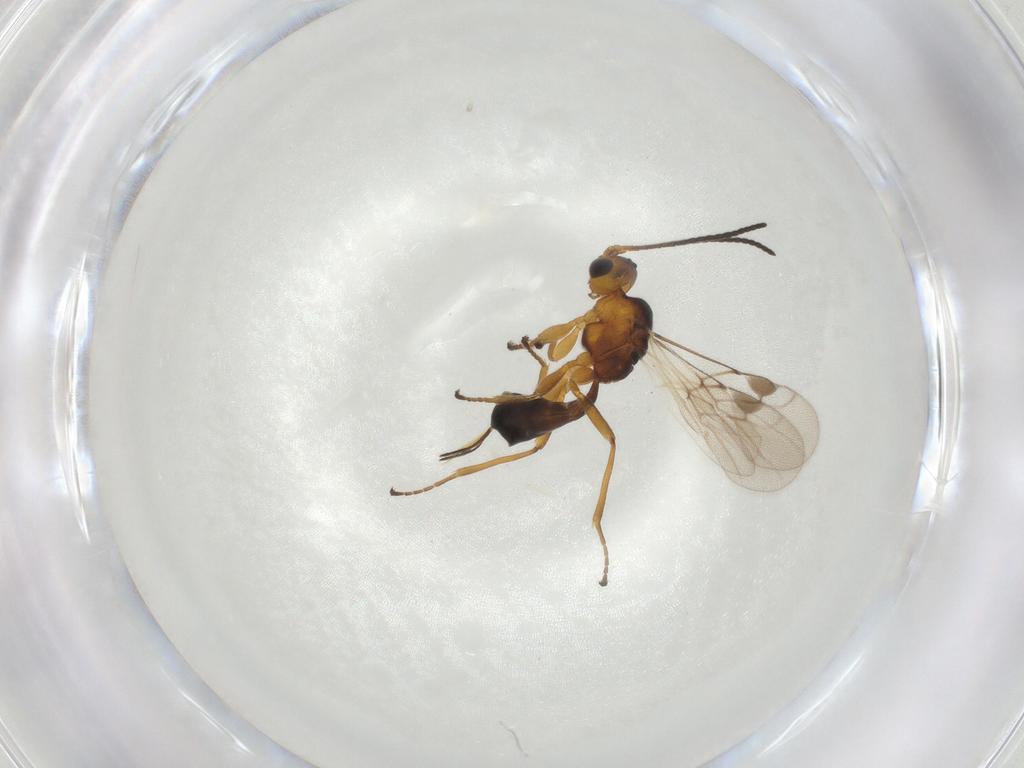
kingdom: Animalia
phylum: Arthropoda
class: Insecta
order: Hymenoptera
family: Braconidae
